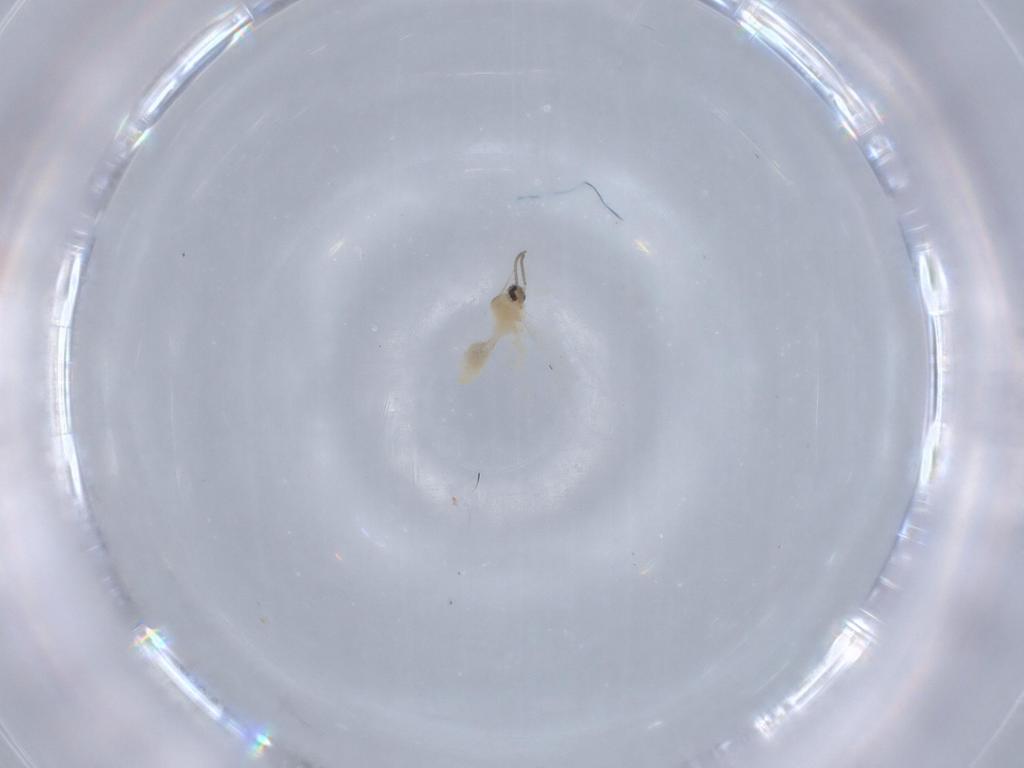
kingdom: Animalia
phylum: Arthropoda
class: Insecta
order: Diptera
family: Cecidomyiidae
